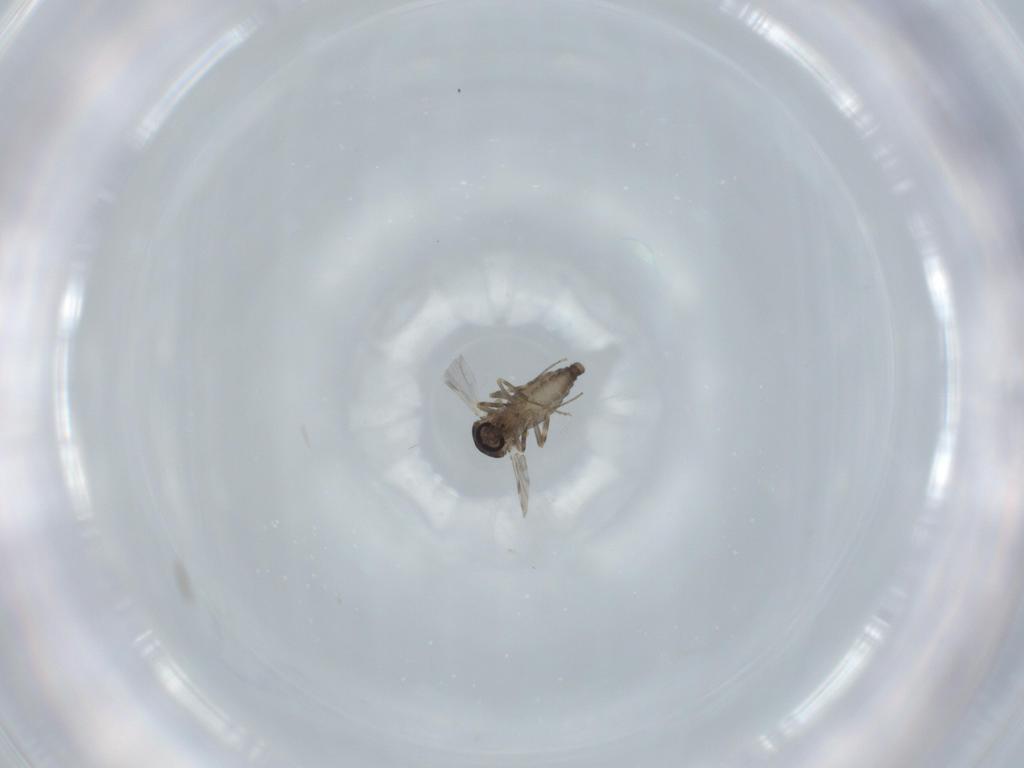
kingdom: Animalia
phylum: Arthropoda
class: Insecta
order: Diptera
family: Ceratopogonidae
